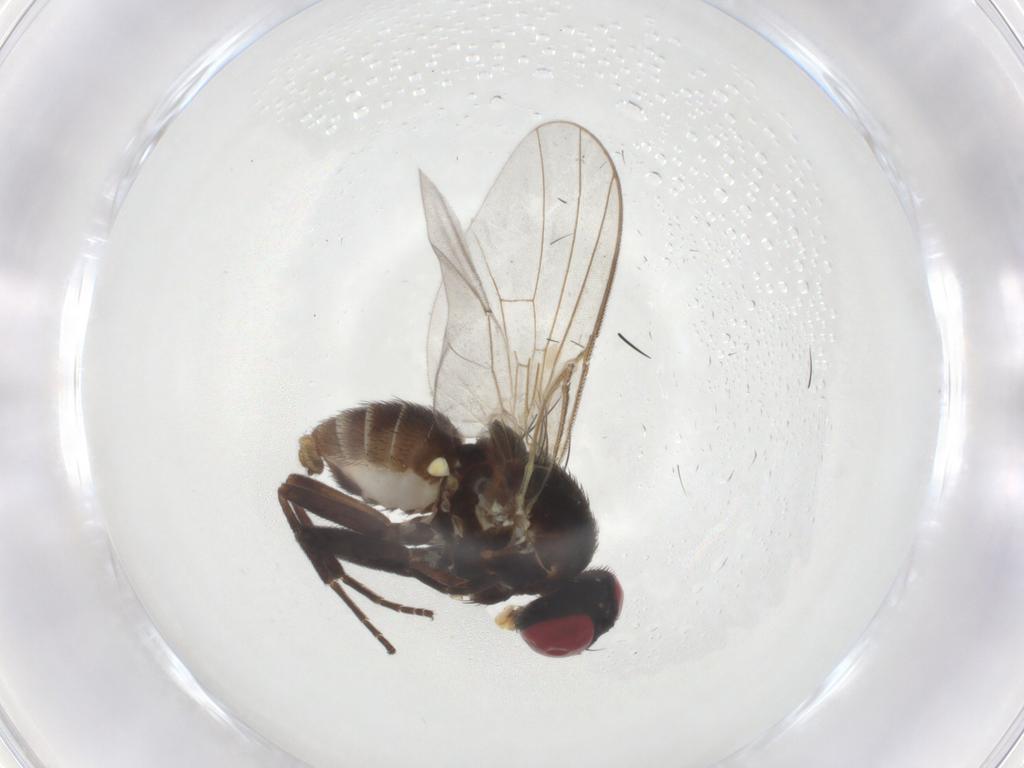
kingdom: Animalia
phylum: Arthropoda
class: Insecta
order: Diptera
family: Agromyzidae
